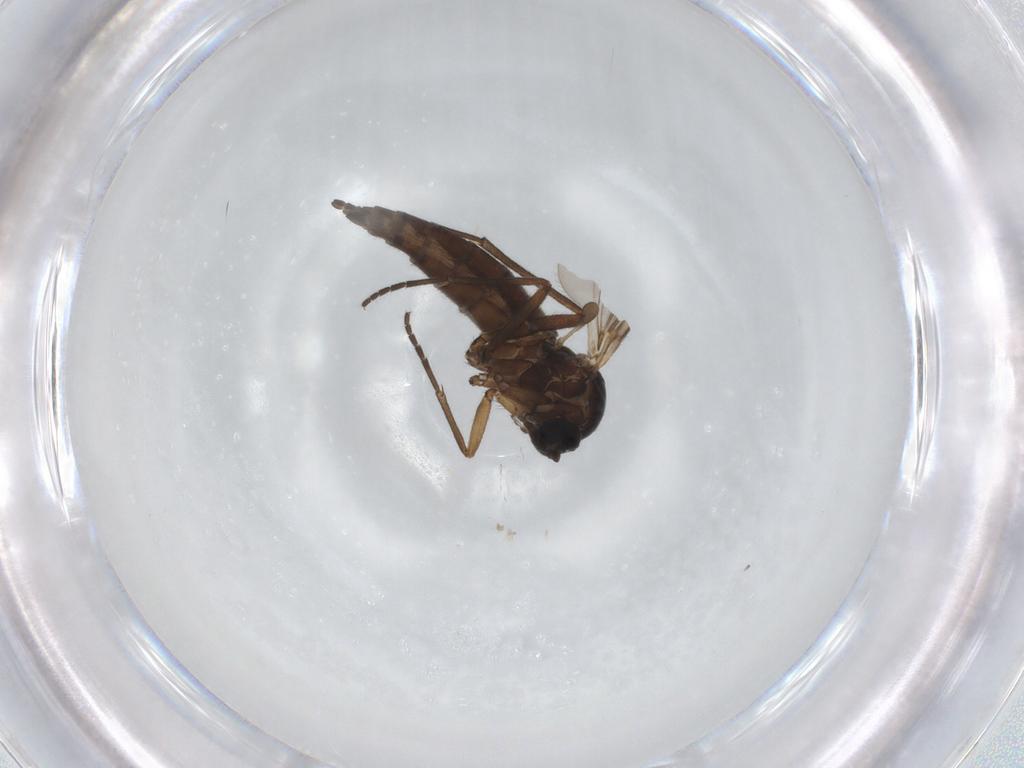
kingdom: Animalia
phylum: Arthropoda
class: Insecta
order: Diptera
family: Sciaridae
